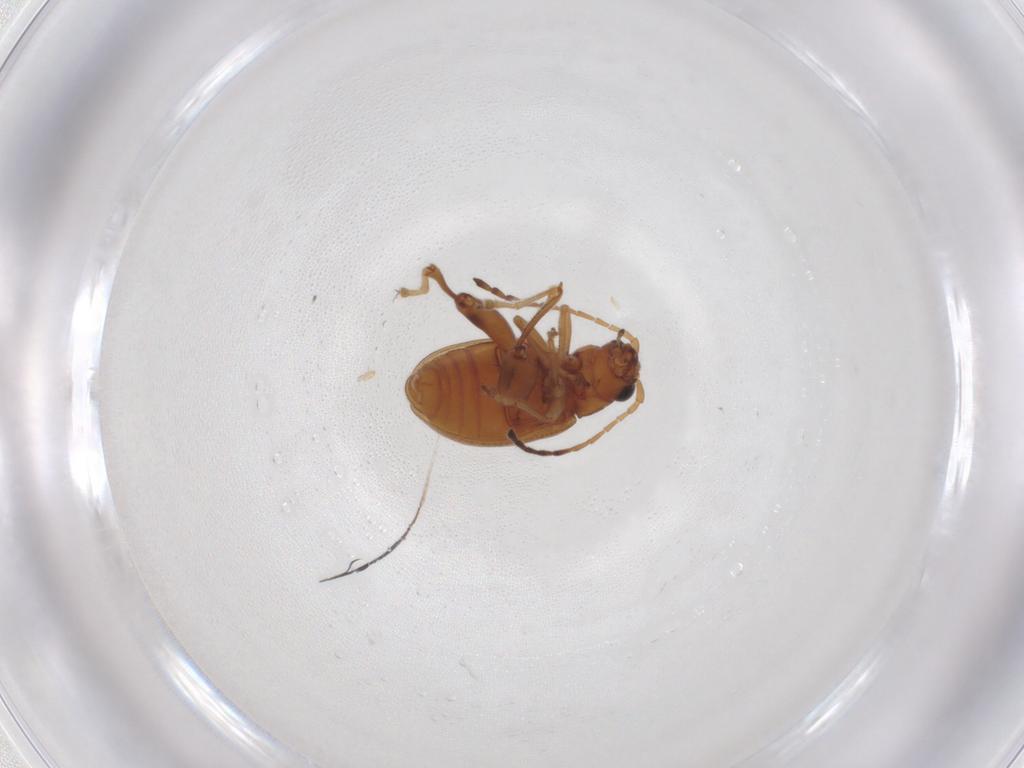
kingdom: Animalia
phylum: Arthropoda
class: Insecta
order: Coleoptera
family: Chrysomelidae
